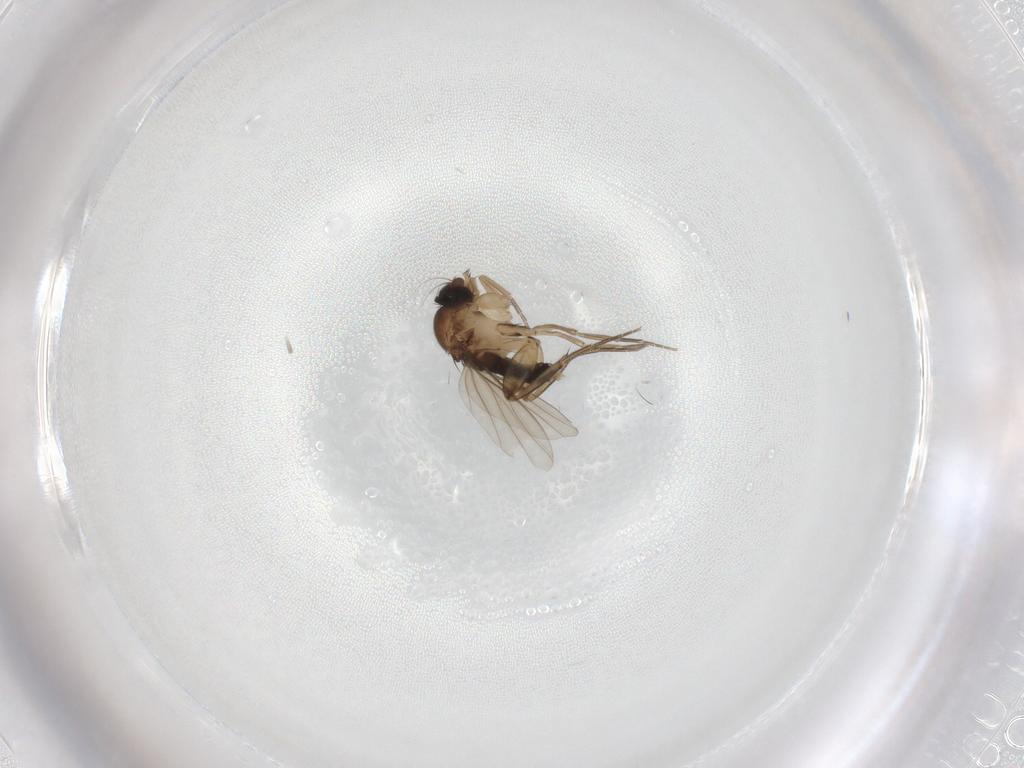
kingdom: Animalia
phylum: Arthropoda
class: Insecta
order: Diptera
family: Phoridae
